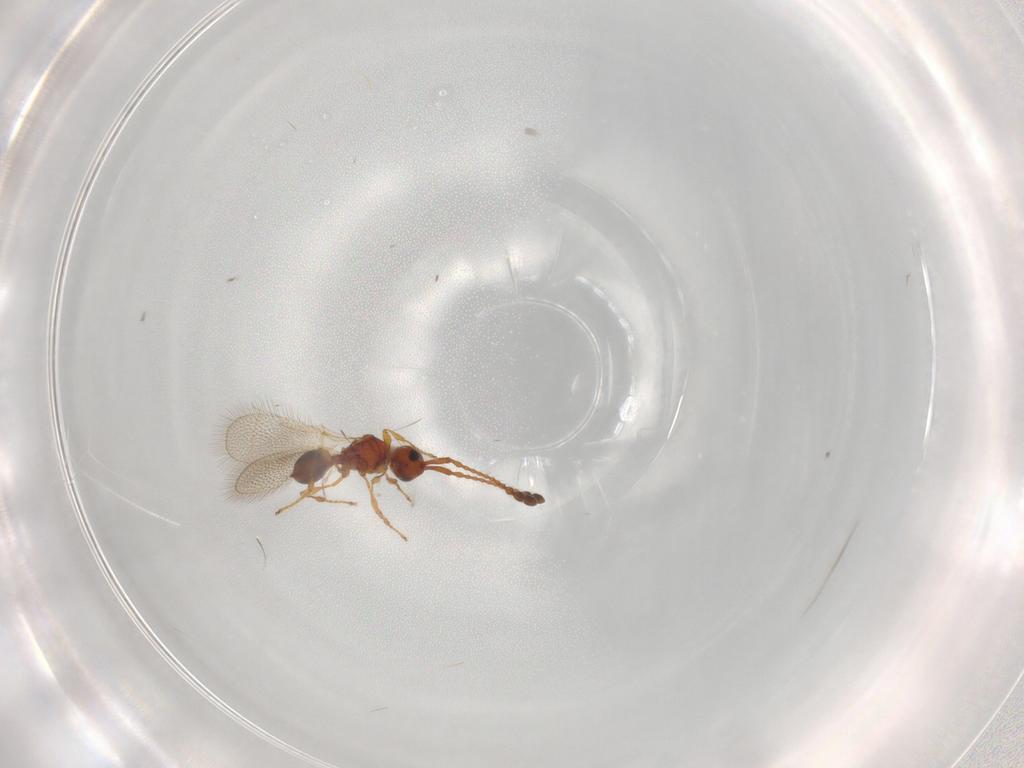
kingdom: Animalia
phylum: Arthropoda
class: Insecta
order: Hymenoptera
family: Diapriidae
